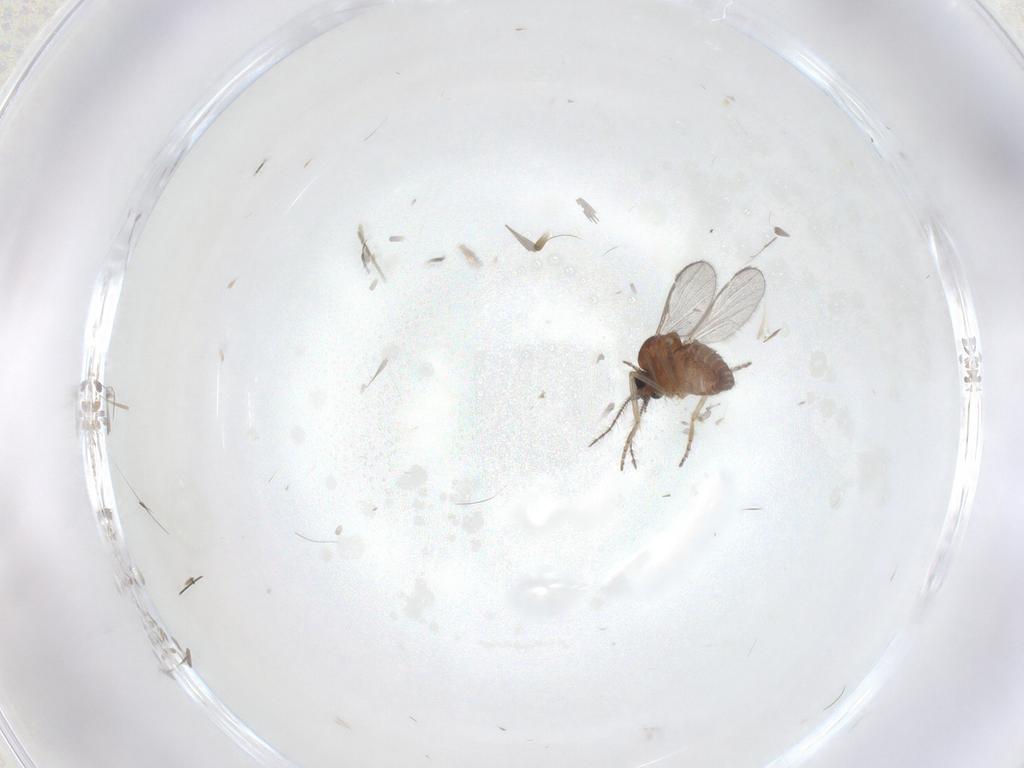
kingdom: Animalia
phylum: Arthropoda
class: Insecta
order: Diptera
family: Ceratopogonidae
